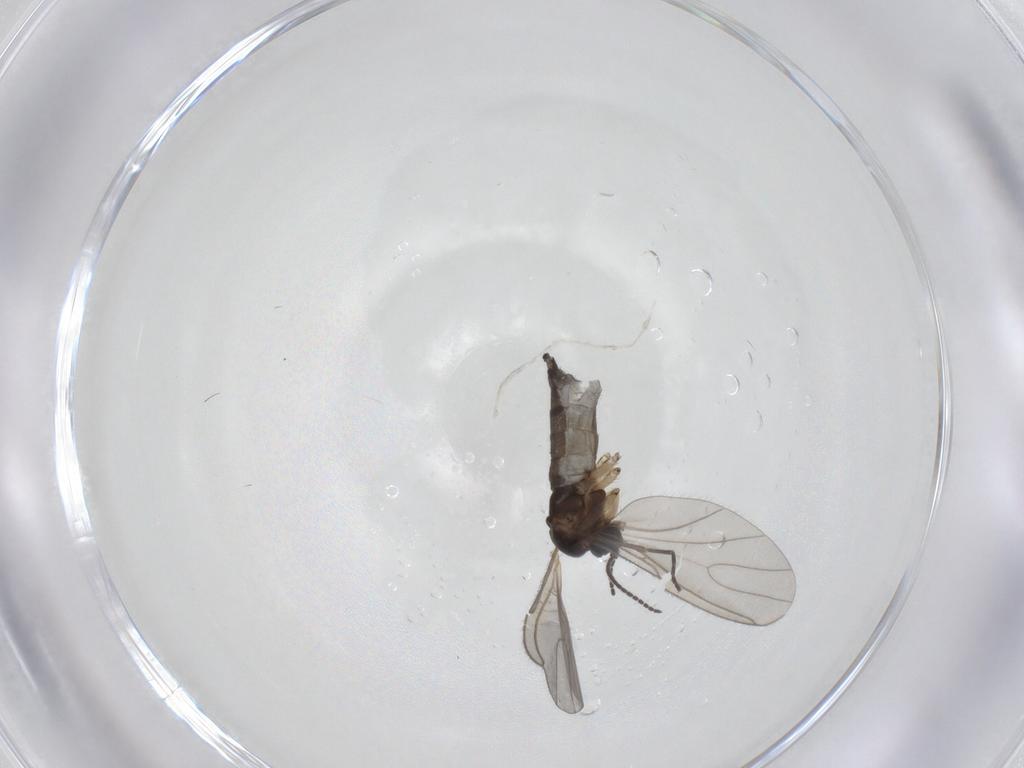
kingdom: Animalia
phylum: Arthropoda
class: Insecta
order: Diptera
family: Sciaridae
